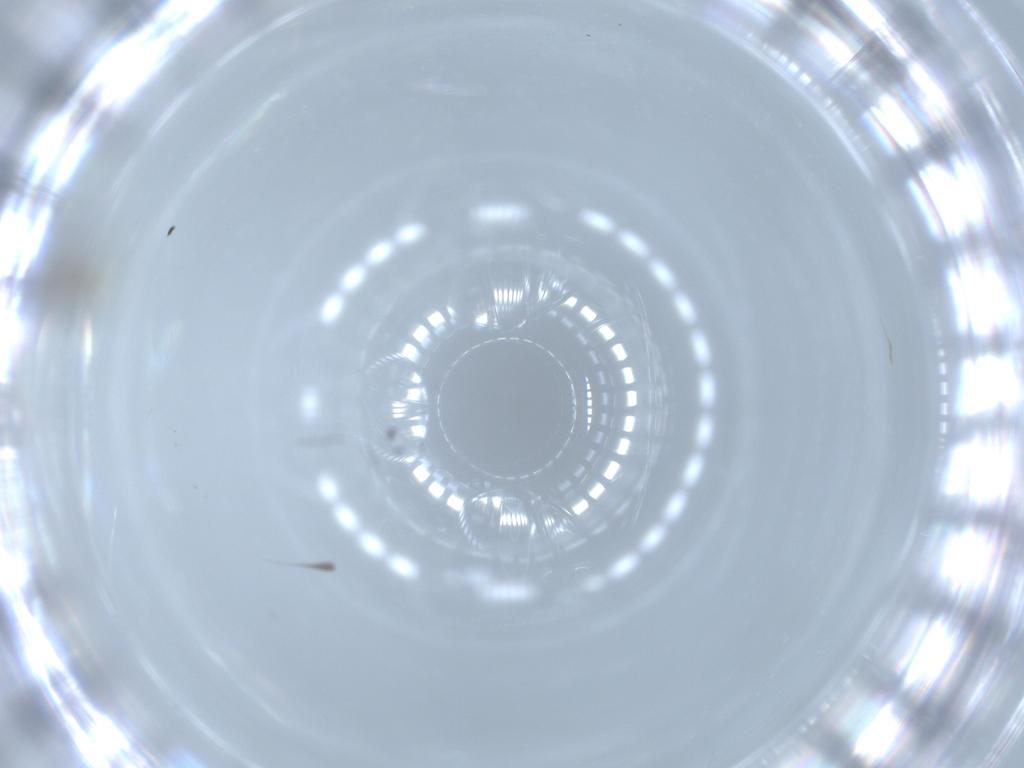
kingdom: Animalia
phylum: Arthropoda
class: Insecta
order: Diptera
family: Cecidomyiidae
